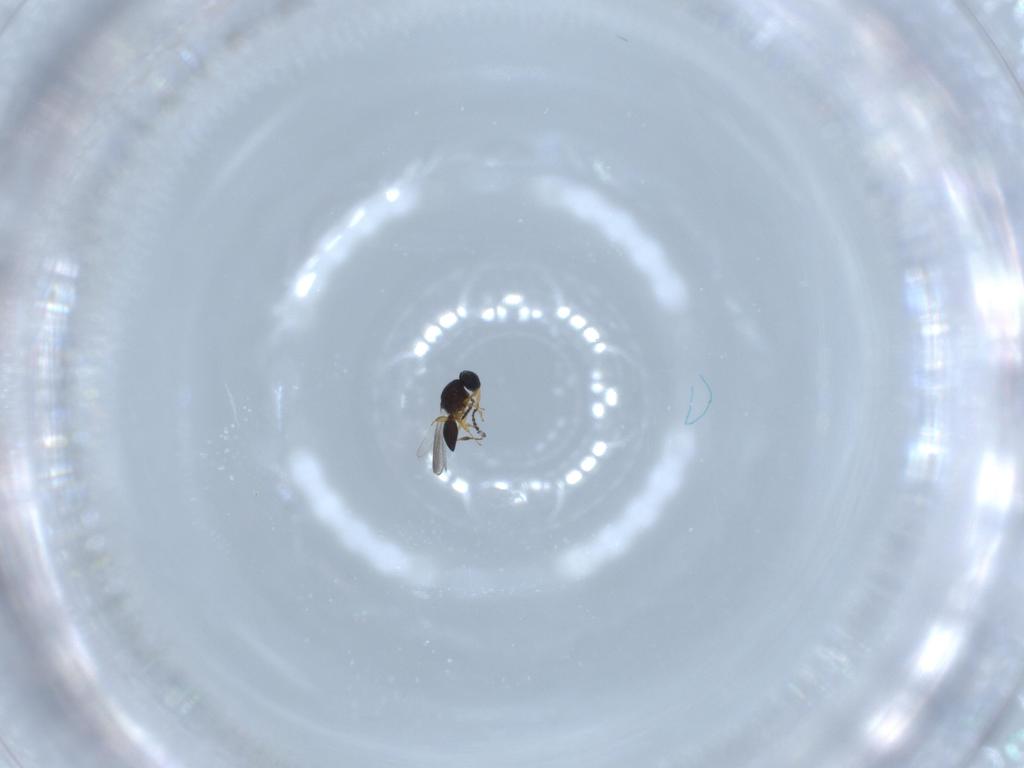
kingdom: Animalia
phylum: Arthropoda
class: Insecta
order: Hymenoptera
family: Platygastridae
